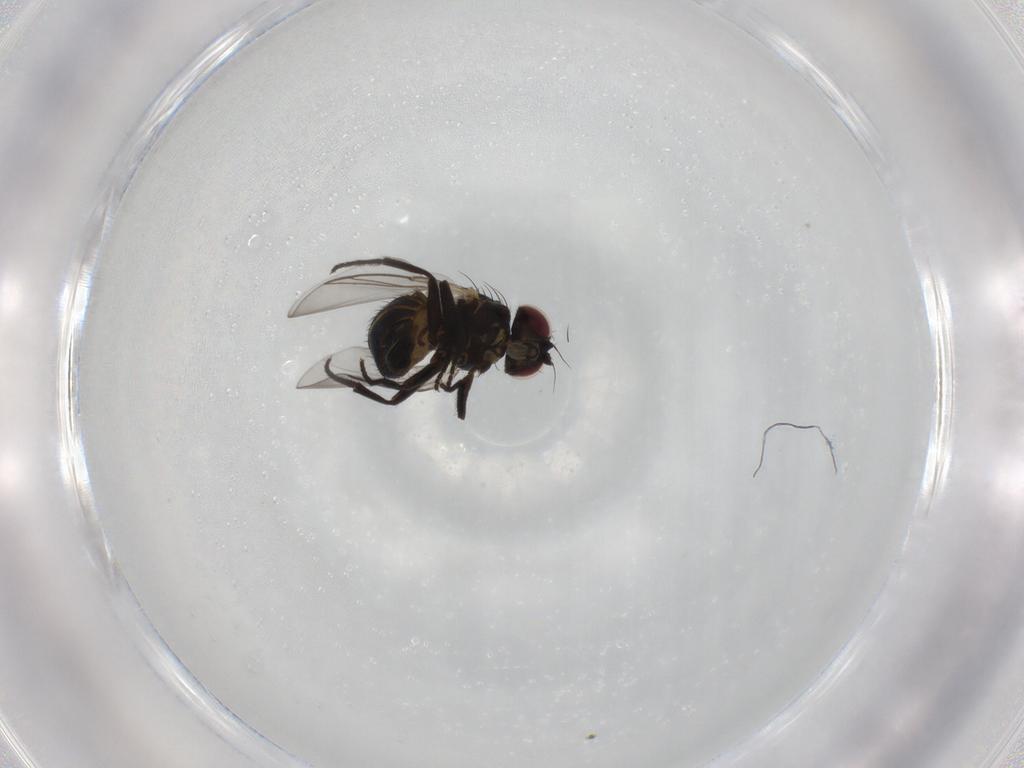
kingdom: Animalia
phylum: Arthropoda
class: Insecta
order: Diptera
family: Agromyzidae
